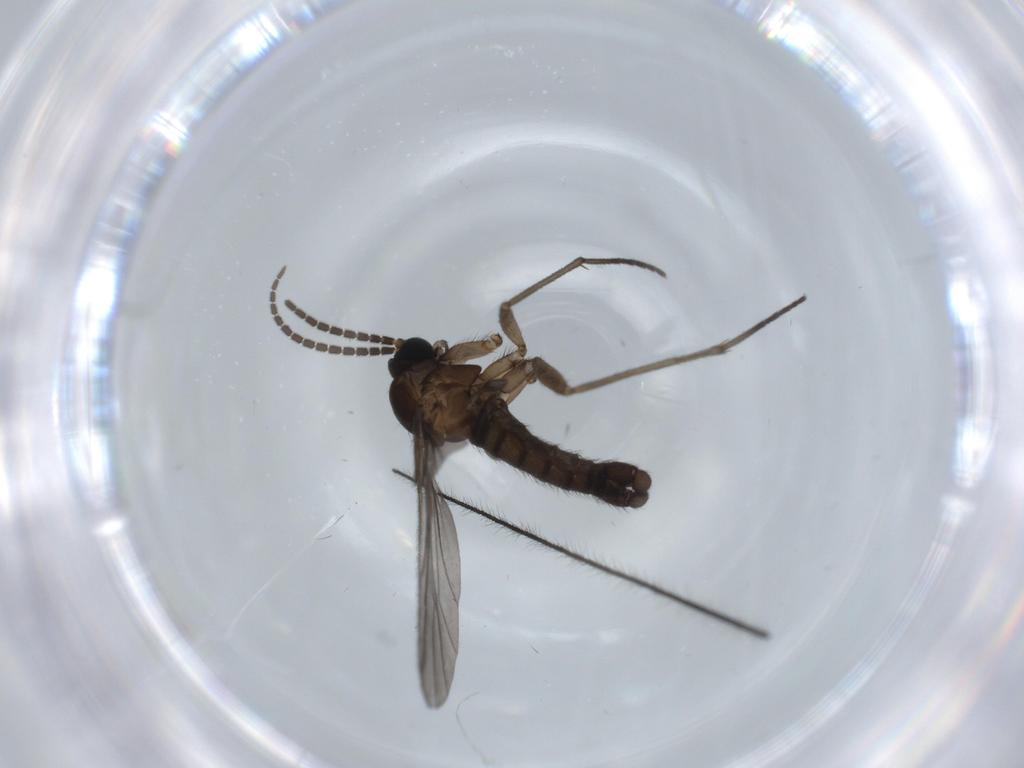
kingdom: Animalia
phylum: Arthropoda
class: Insecta
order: Diptera
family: Sciaridae
